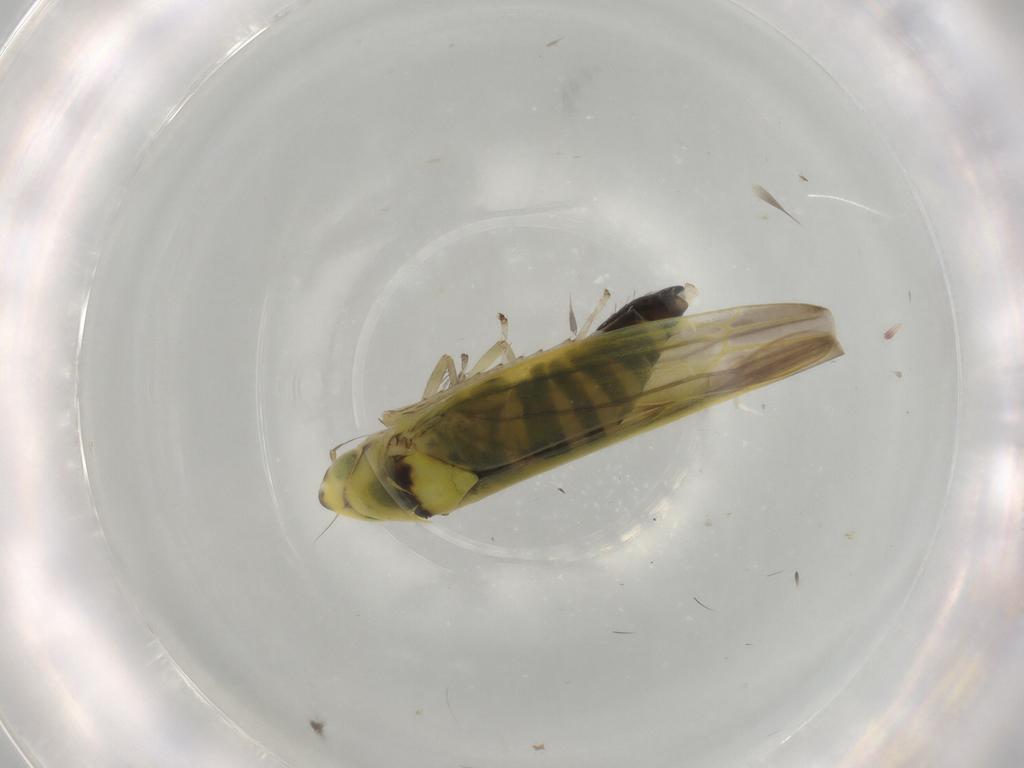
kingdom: Animalia
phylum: Arthropoda
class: Insecta
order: Hemiptera
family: Cicadellidae
